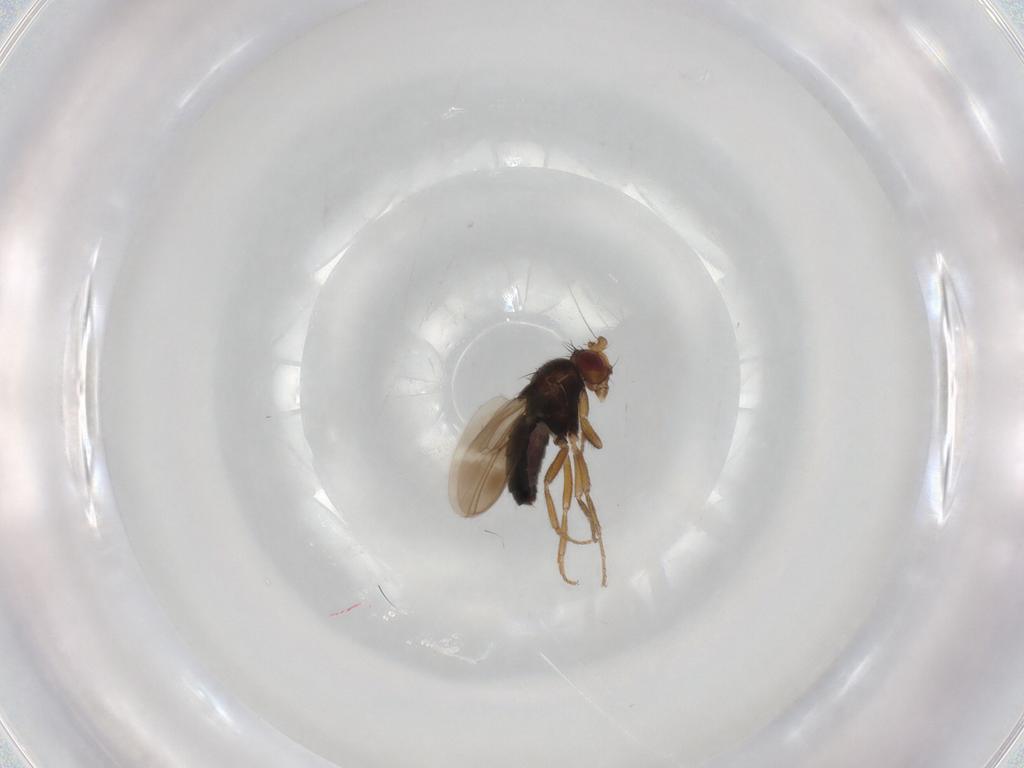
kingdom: Animalia
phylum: Arthropoda
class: Insecta
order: Diptera
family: Sphaeroceridae
